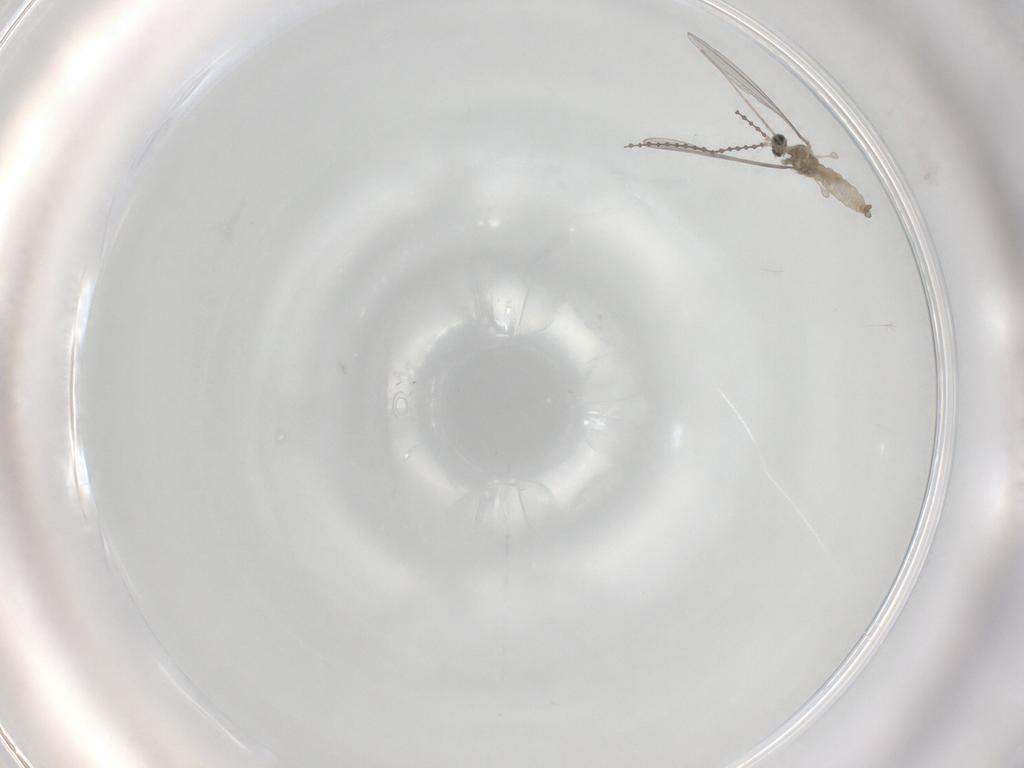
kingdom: Animalia
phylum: Arthropoda
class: Insecta
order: Diptera
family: Cecidomyiidae
